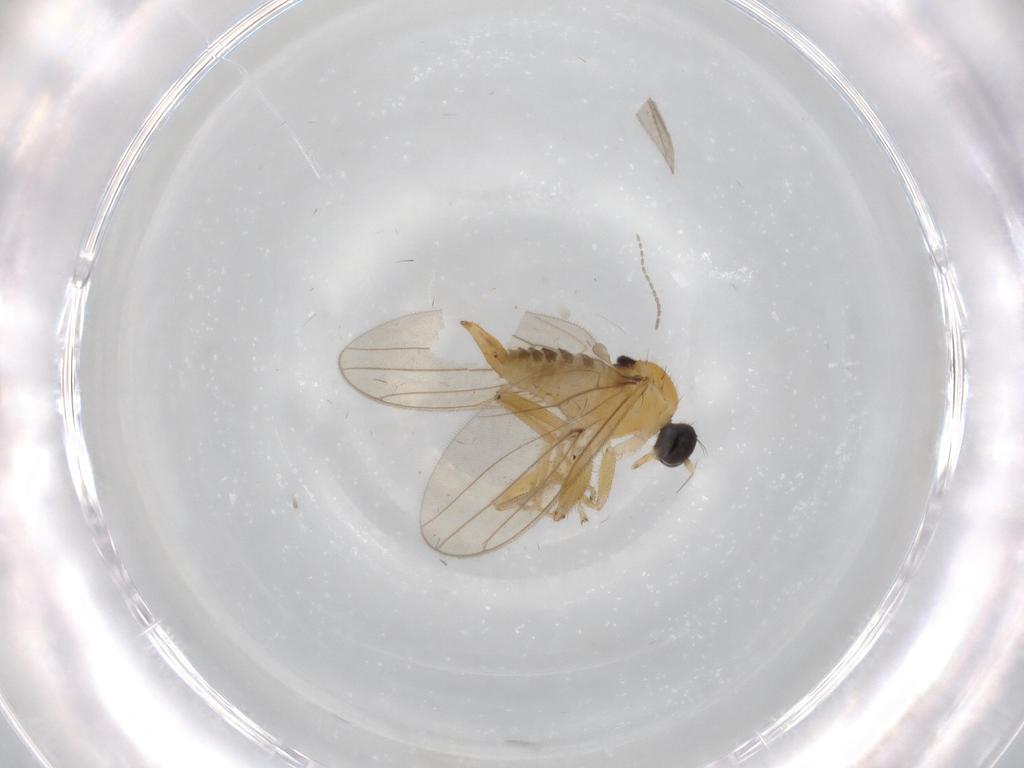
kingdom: Animalia
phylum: Arthropoda
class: Insecta
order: Diptera
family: Hybotidae
